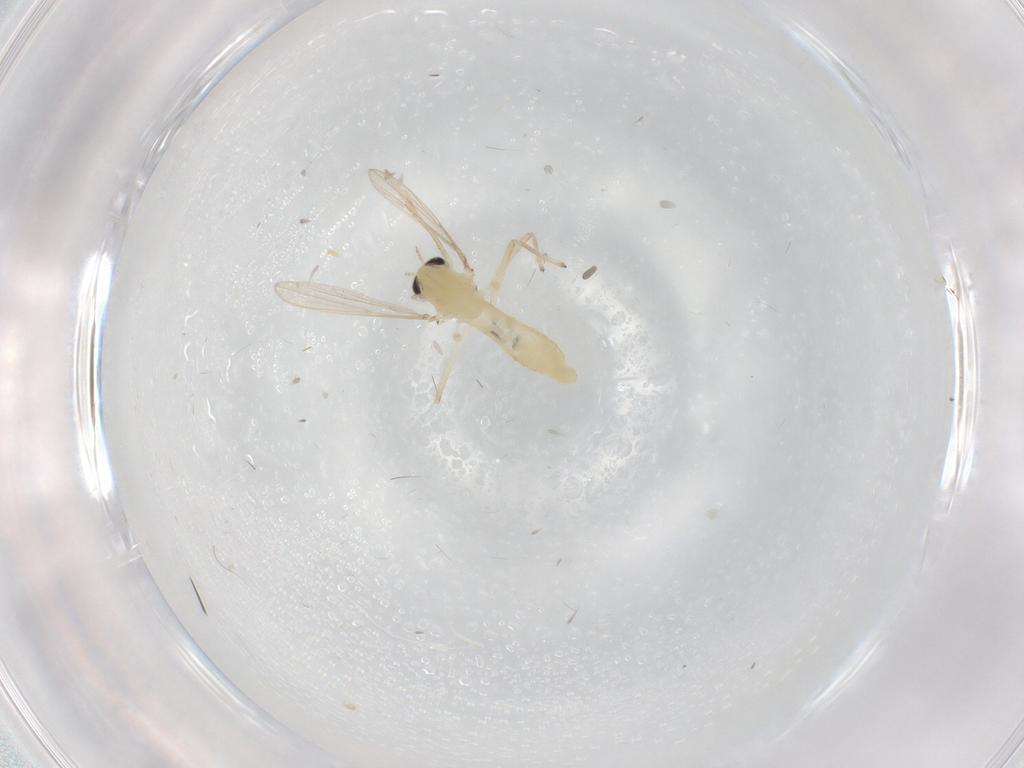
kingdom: Animalia
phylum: Arthropoda
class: Insecta
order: Diptera
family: Chironomidae
